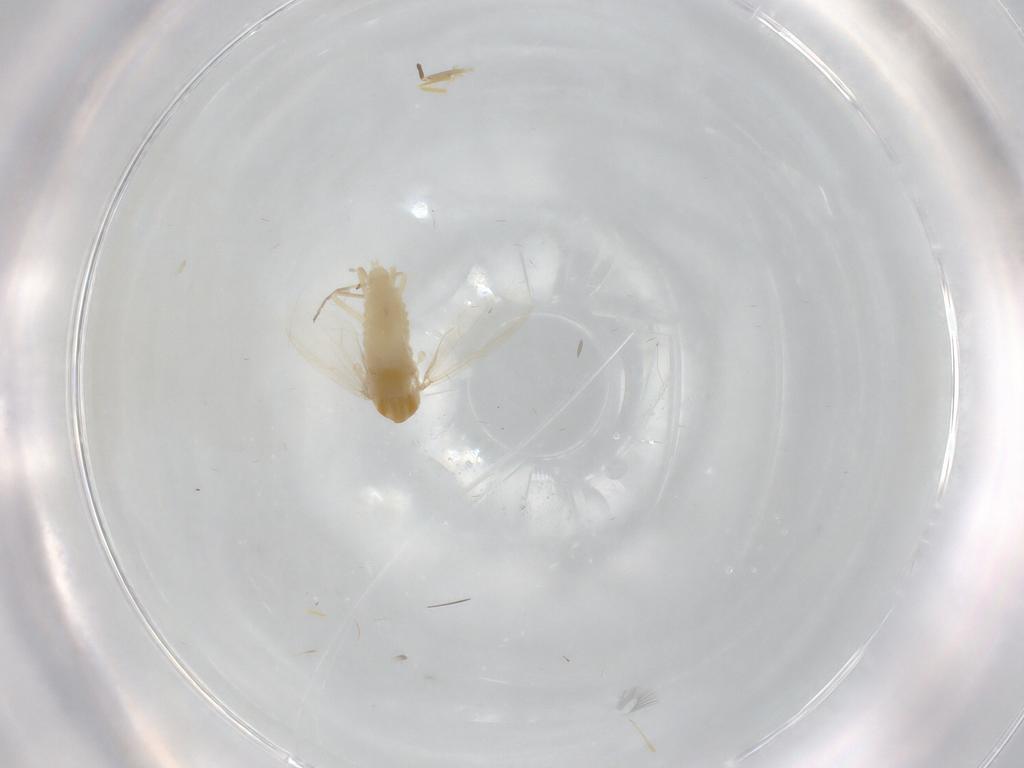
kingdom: Animalia
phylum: Arthropoda
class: Insecta
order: Diptera
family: Chironomidae
